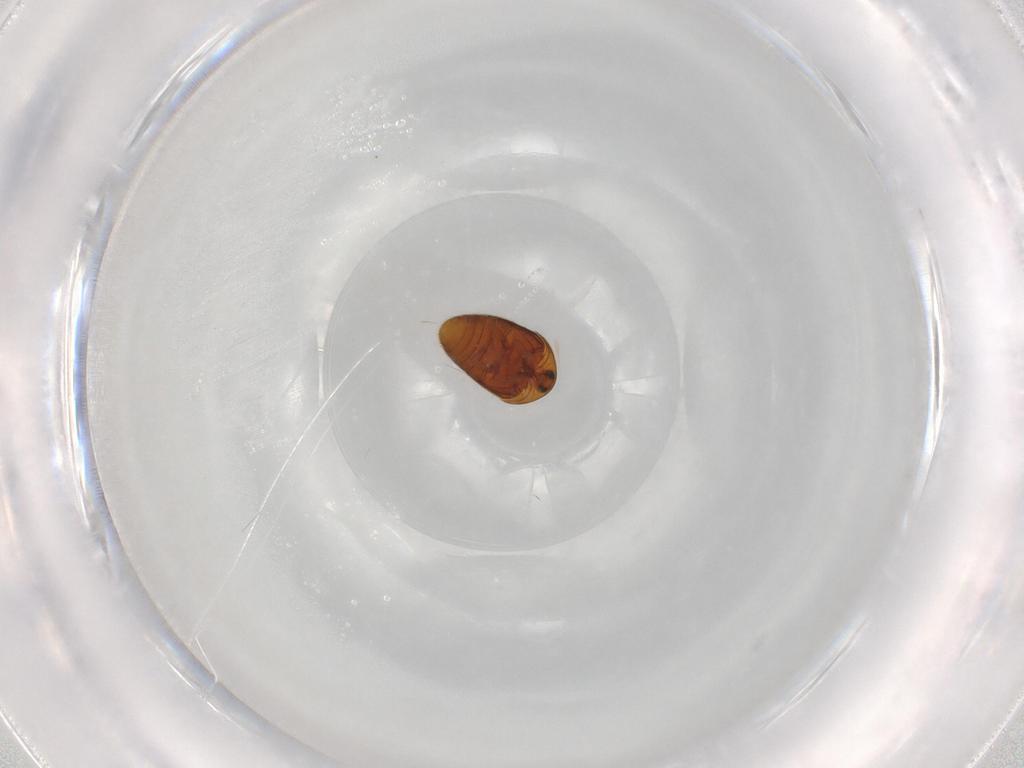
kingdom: Animalia
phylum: Arthropoda
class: Insecta
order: Coleoptera
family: Corylophidae
